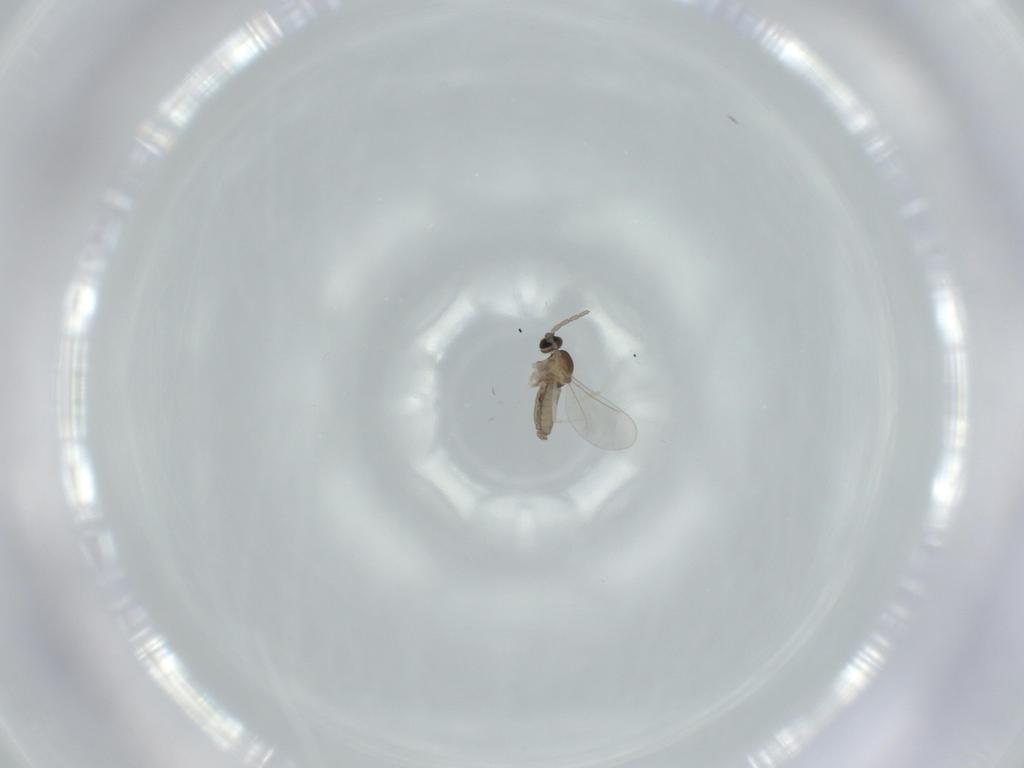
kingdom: Animalia
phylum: Arthropoda
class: Insecta
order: Diptera
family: Cecidomyiidae
